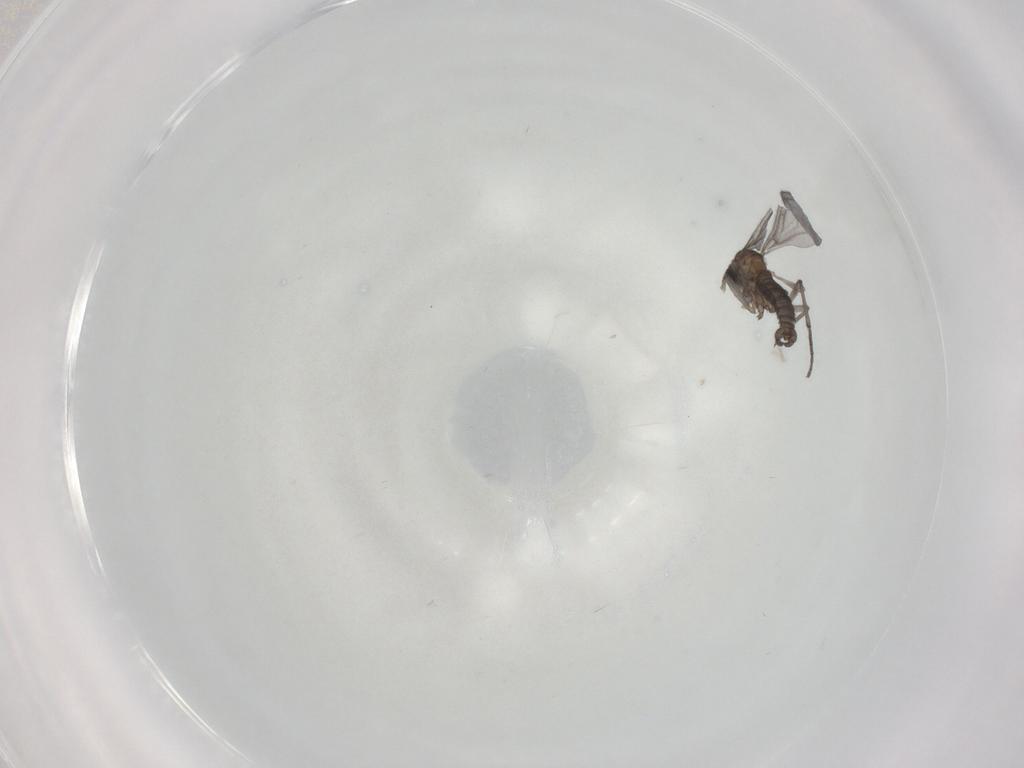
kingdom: Animalia
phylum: Arthropoda
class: Insecta
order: Diptera
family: Sciaridae
